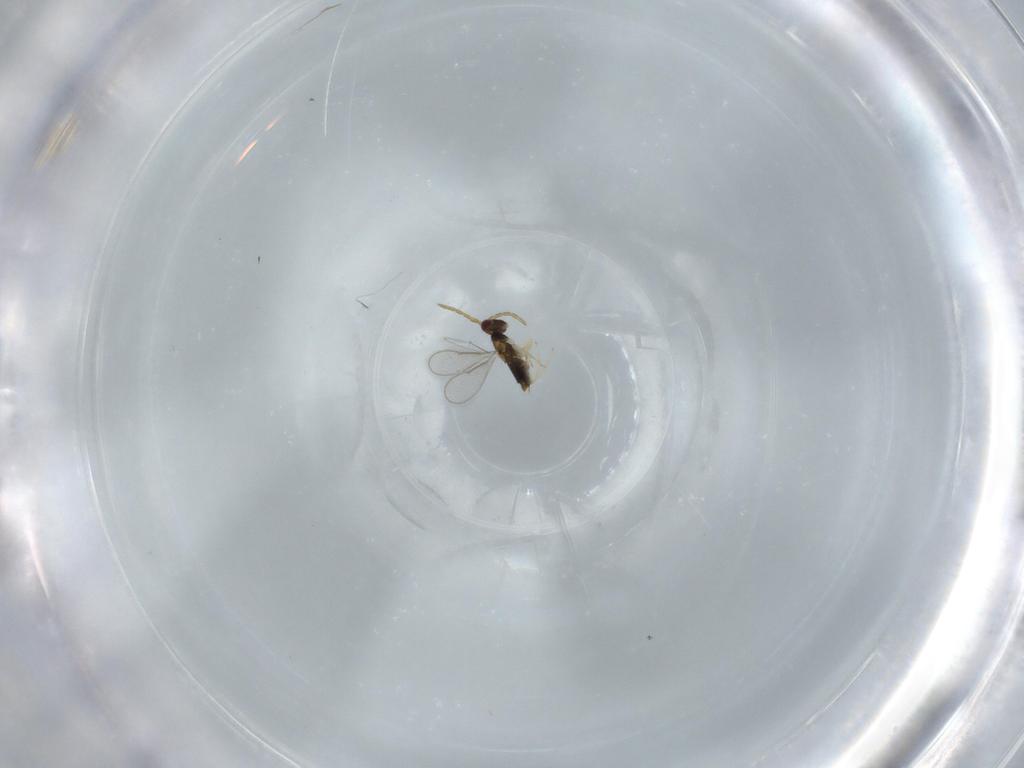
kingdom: Animalia
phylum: Arthropoda
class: Insecta
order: Hymenoptera
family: Aphelinidae
